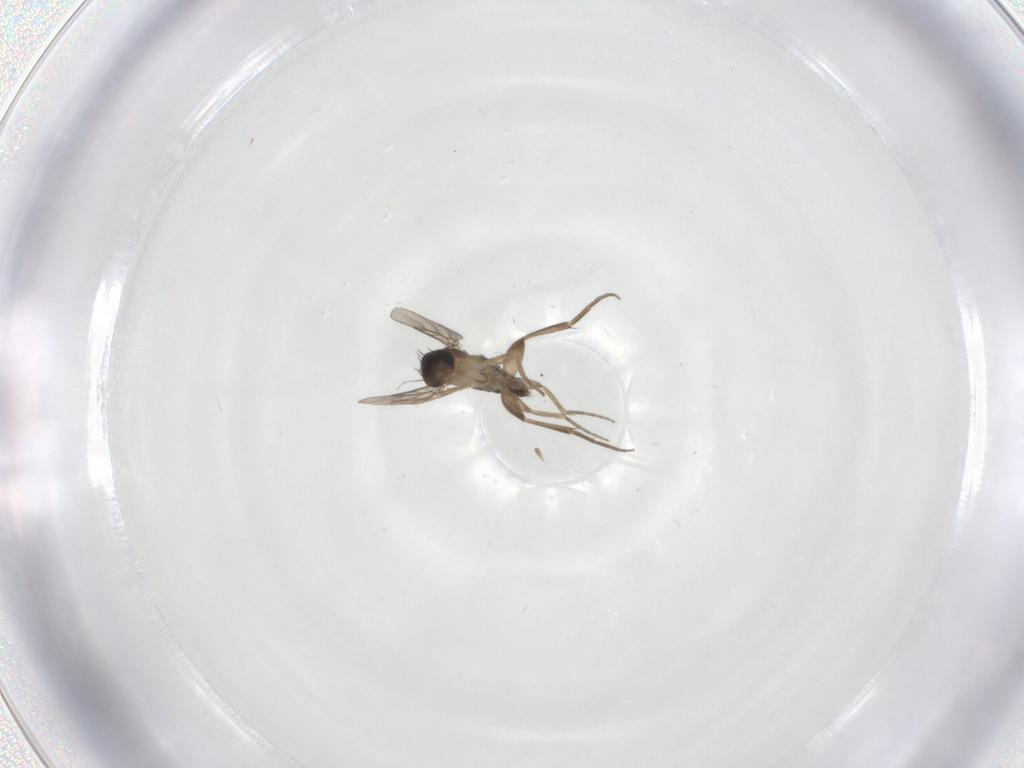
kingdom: Animalia
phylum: Arthropoda
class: Insecta
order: Diptera
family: Phoridae
